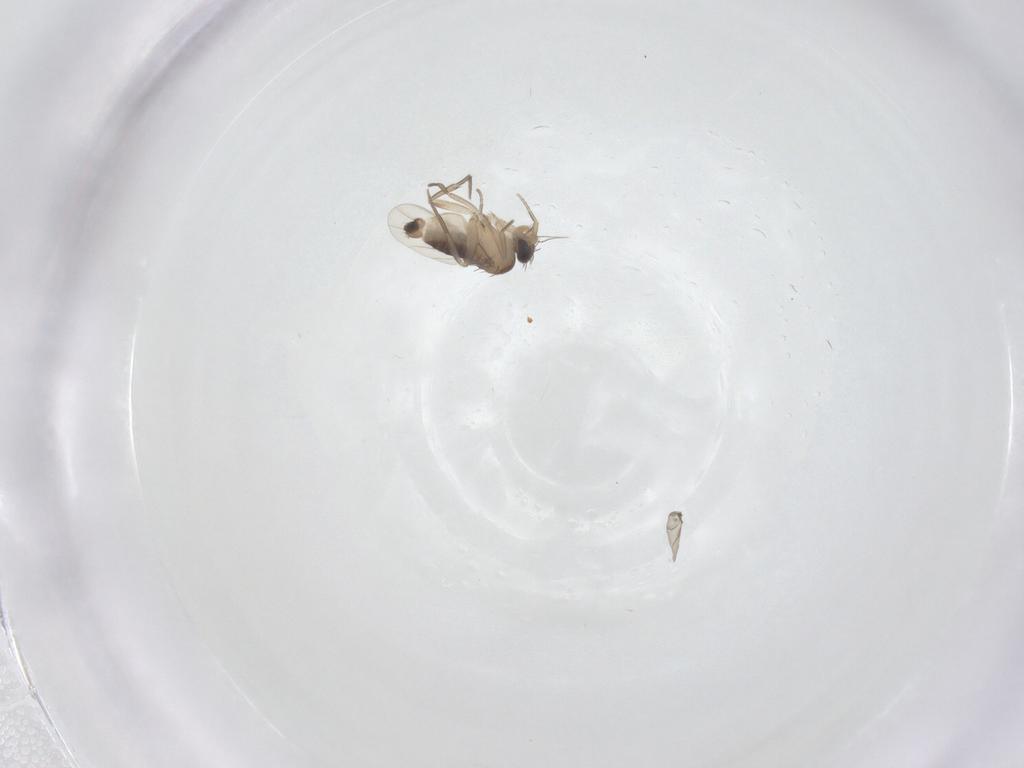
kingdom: Animalia
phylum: Arthropoda
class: Insecta
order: Diptera
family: Phoridae
